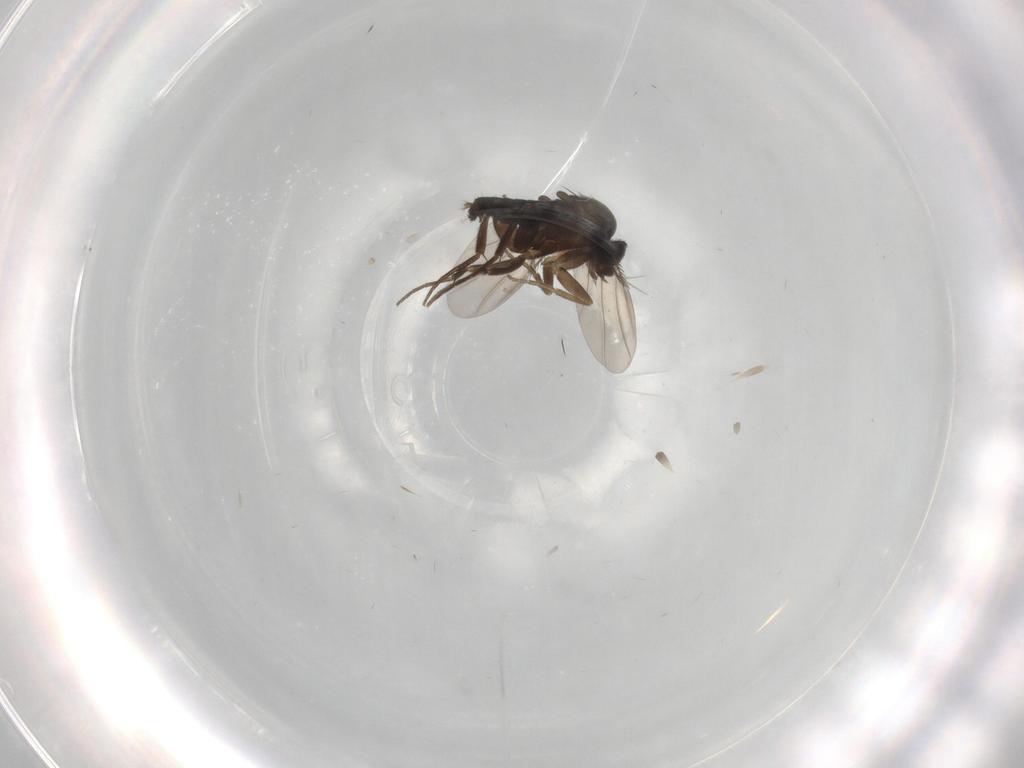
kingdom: Animalia
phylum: Arthropoda
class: Insecta
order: Diptera
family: Phoridae
